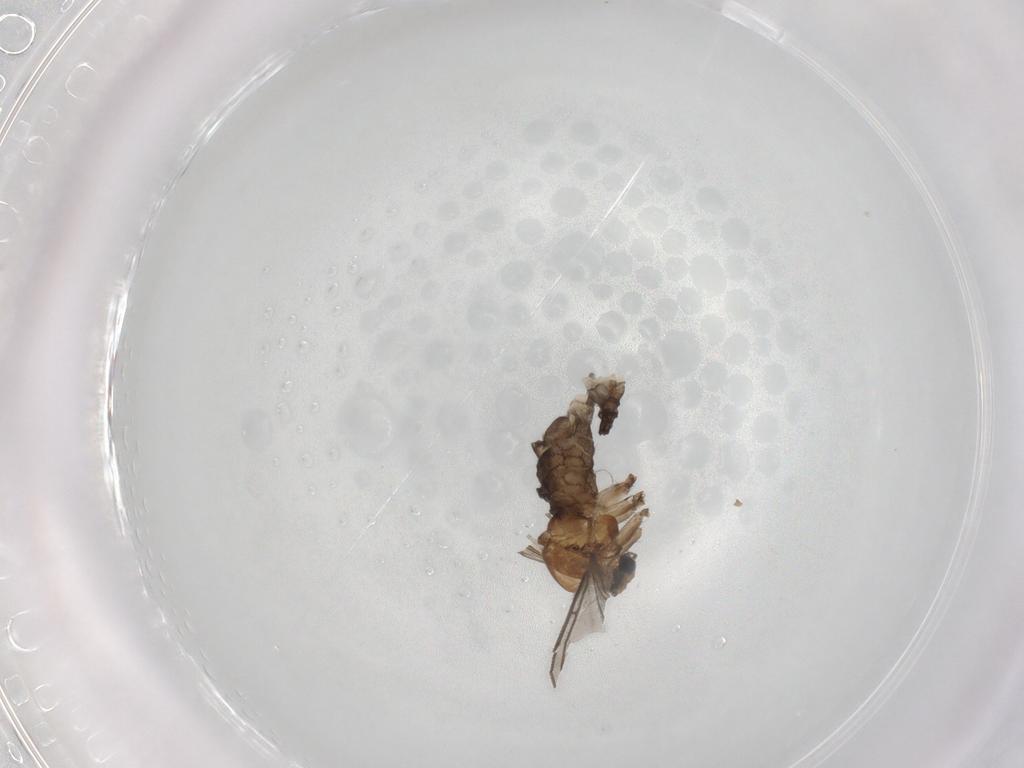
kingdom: Animalia
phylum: Arthropoda
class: Insecta
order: Diptera
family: Sciaridae
